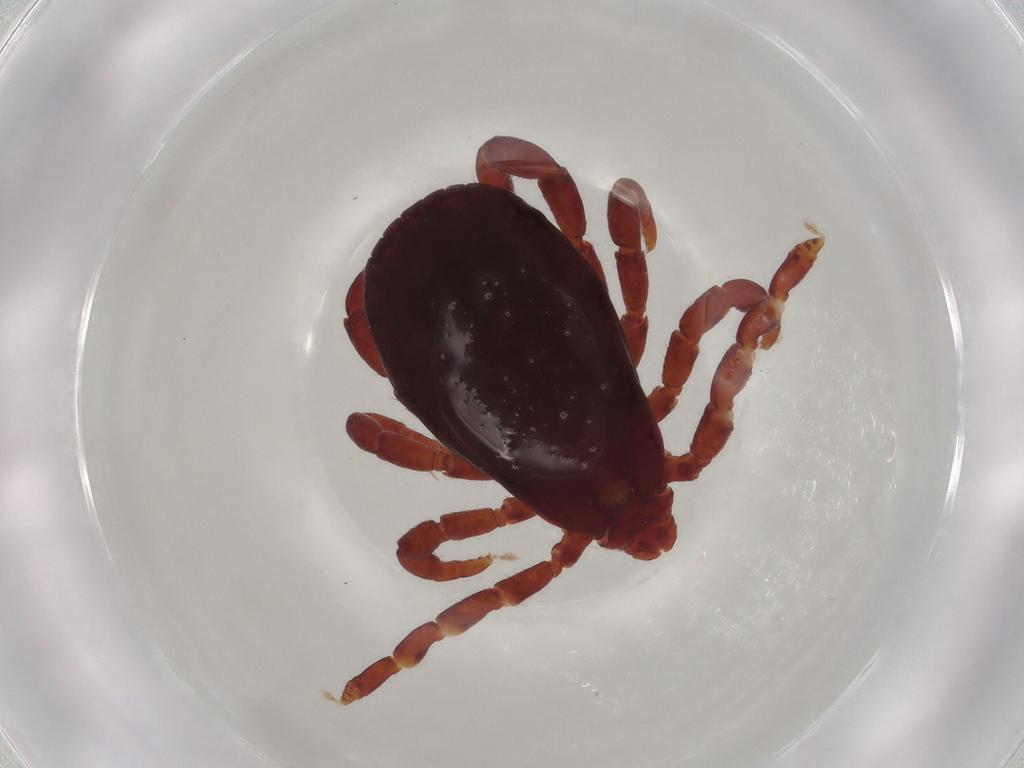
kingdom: Animalia
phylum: Arthropoda
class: Arachnida
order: Ixodida
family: Ixodidae
